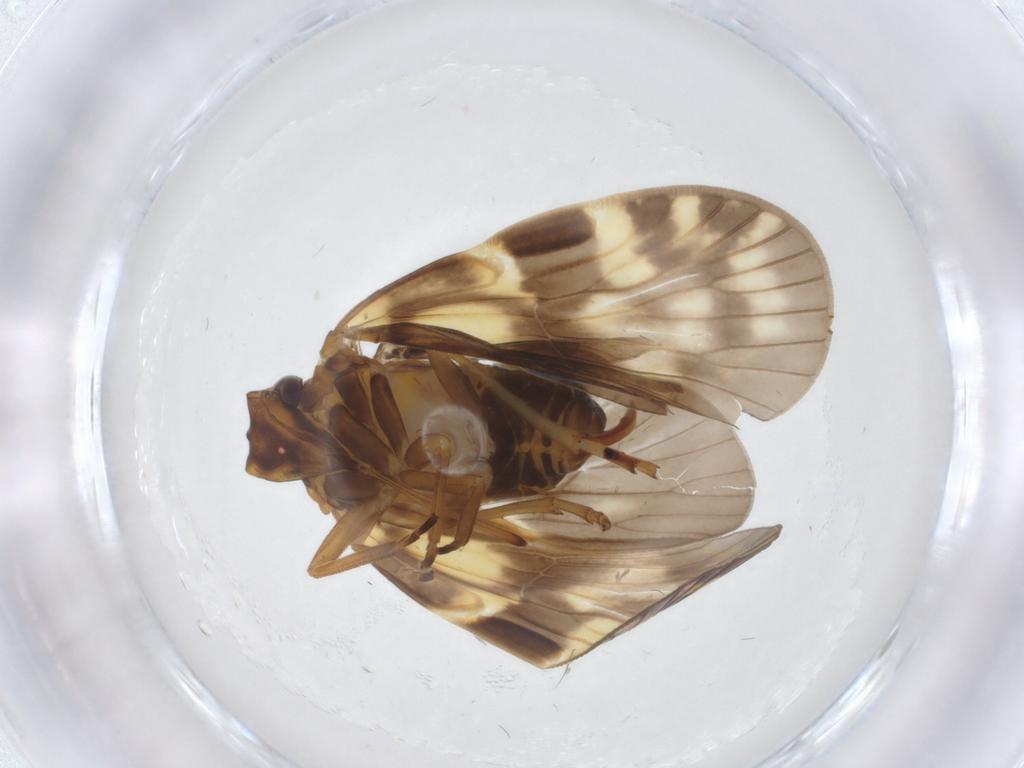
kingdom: Animalia
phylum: Arthropoda
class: Insecta
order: Hemiptera
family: Cixiidae
